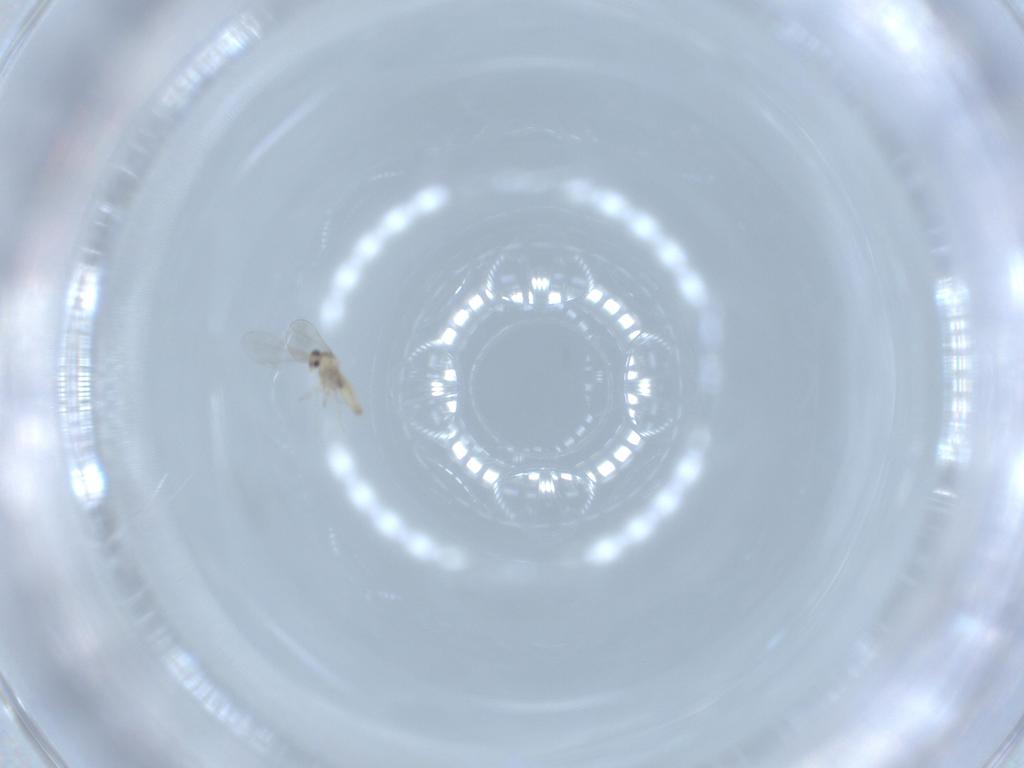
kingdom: Animalia
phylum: Arthropoda
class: Insecta
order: Diptera
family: Cecidomyiidae
